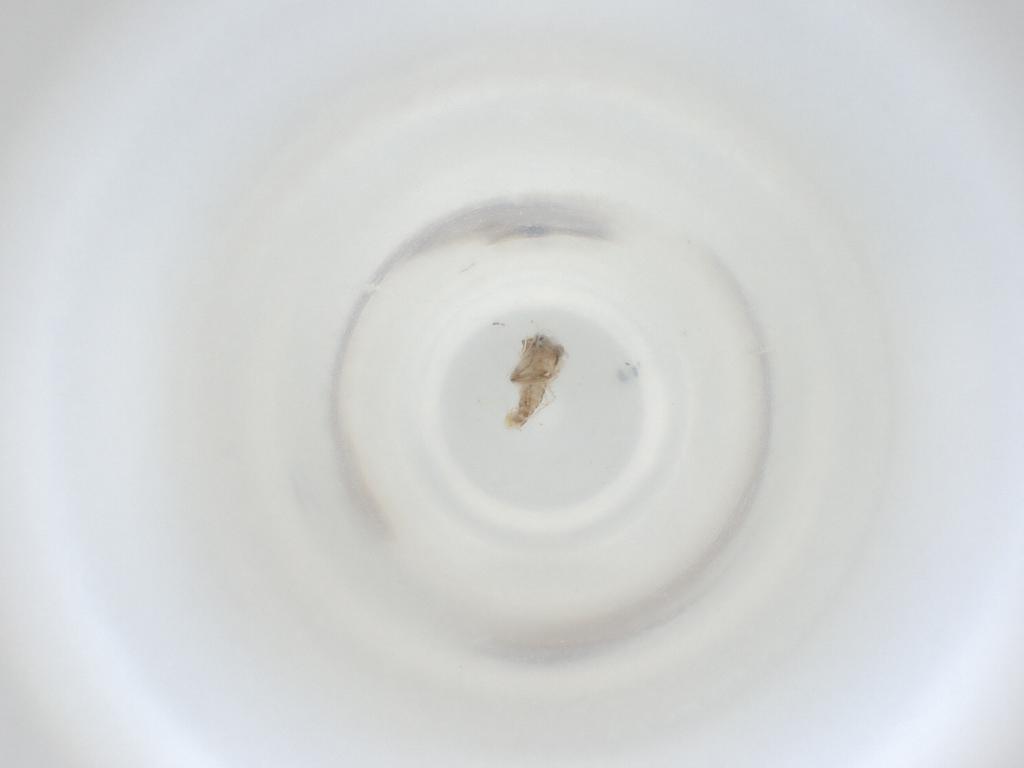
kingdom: Animalia
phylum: Arthropoda
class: Insecta
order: Diptera
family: Cecidomyiidae
